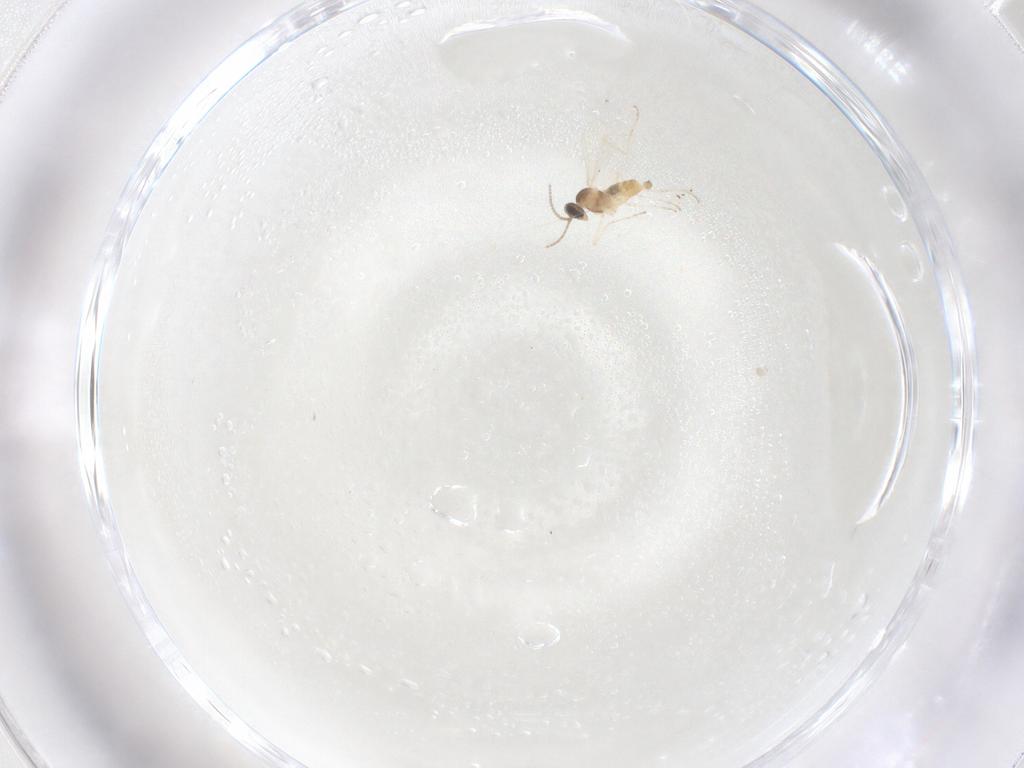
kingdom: Animalia
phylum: Arthropoda
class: Insecta
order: Diptera
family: Cecidomyiidae
